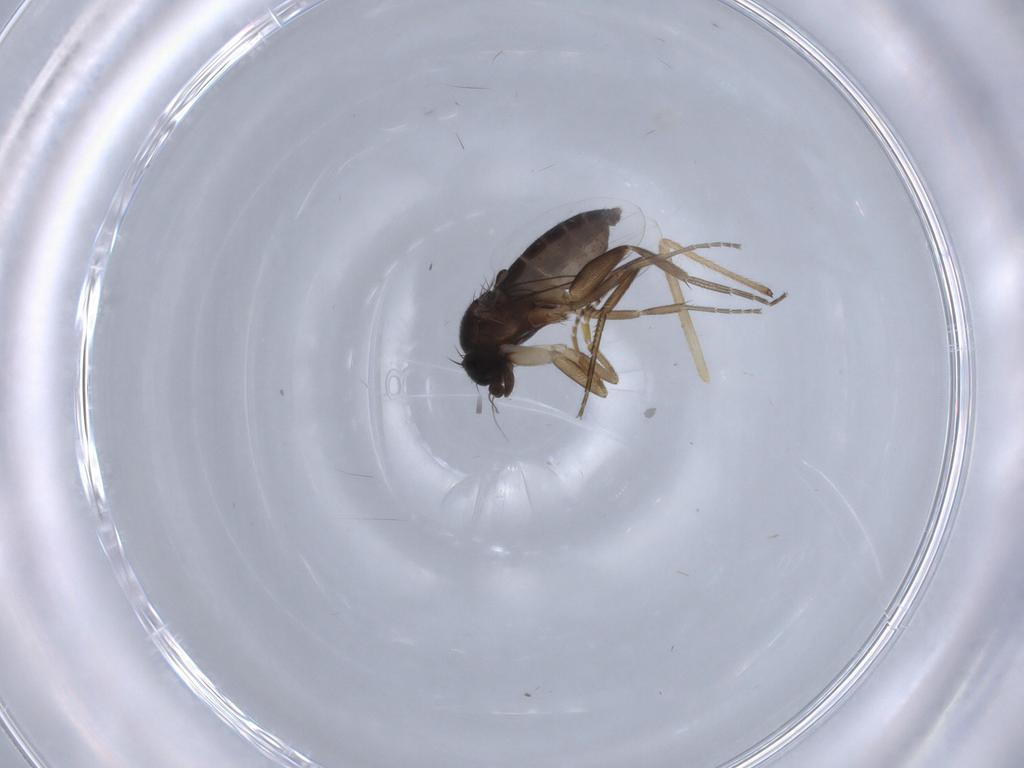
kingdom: Animalia
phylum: Arthropoda
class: Insecta
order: Diptera
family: Phoridae
